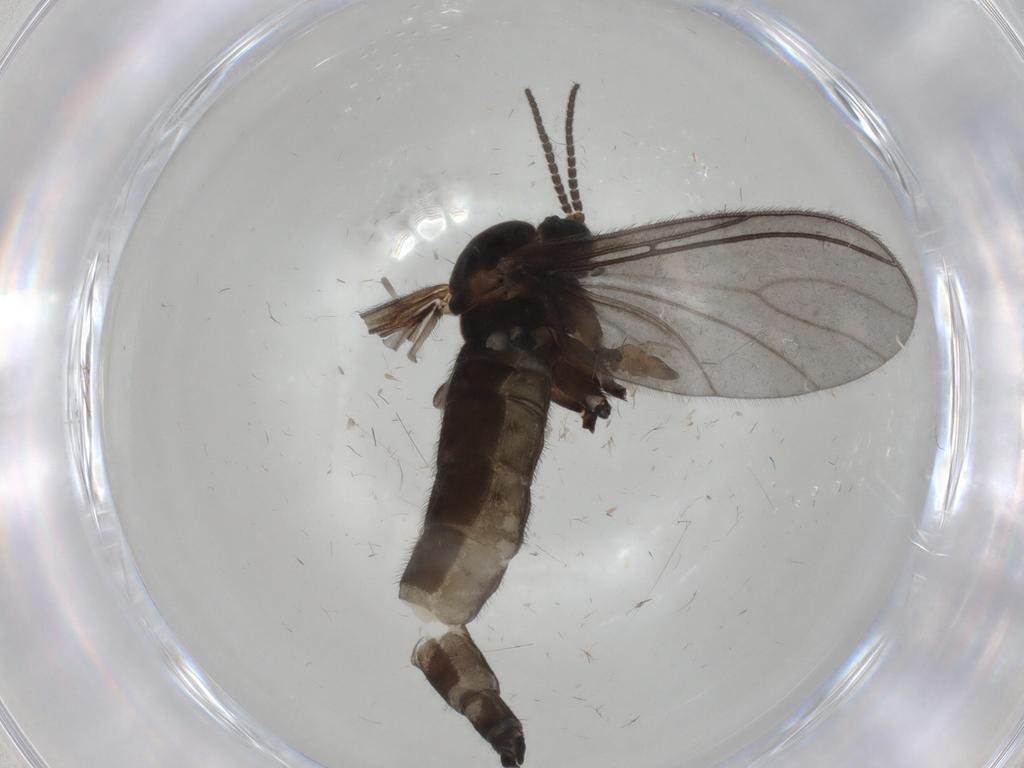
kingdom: Animalia
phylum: Arthropoda
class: Insecta
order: Diptera
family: Sciaridae
